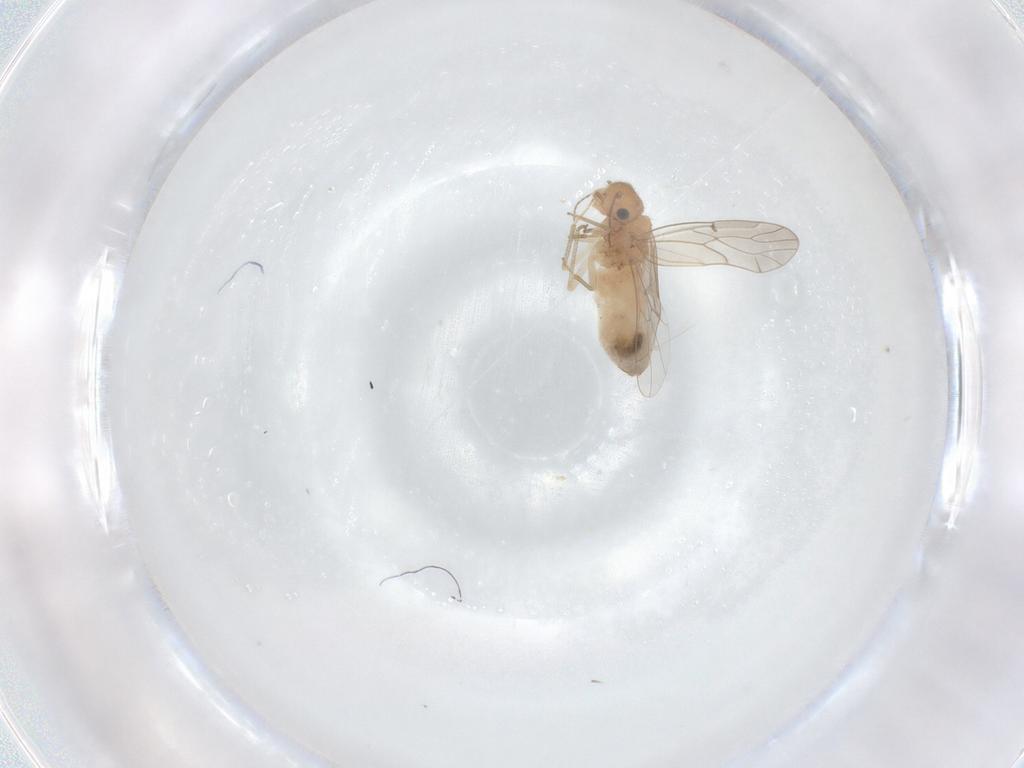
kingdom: Animalia
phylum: Arthropoda
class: Insecta
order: Psocodea
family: Ectopsocidae
